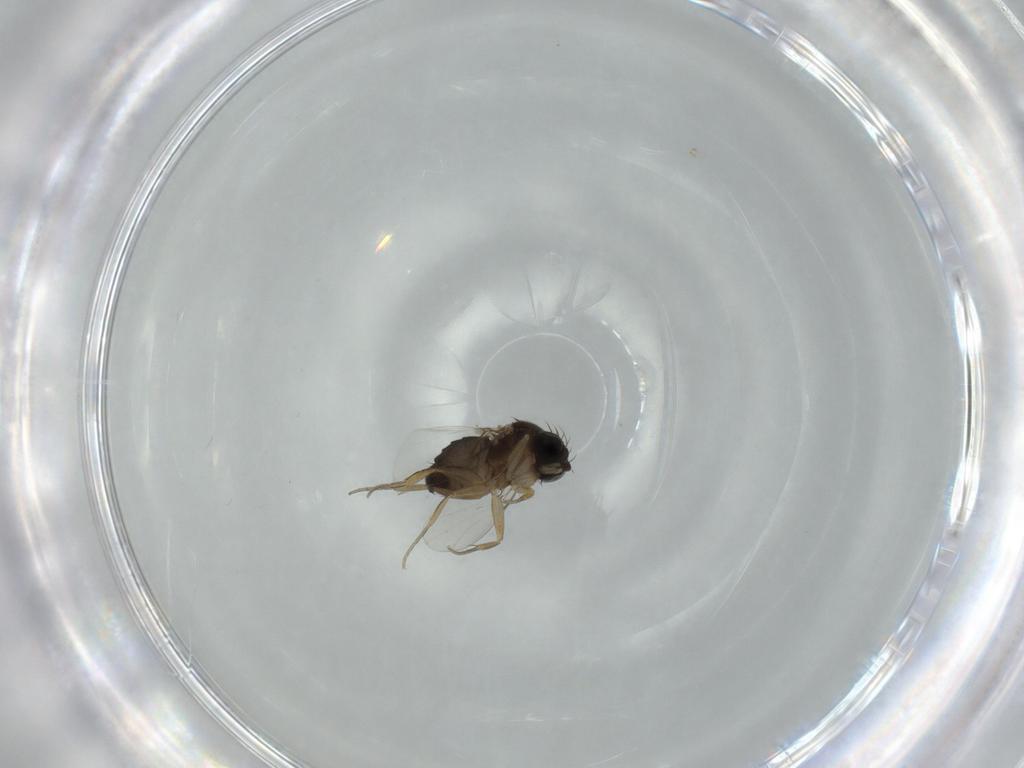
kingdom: Animalia
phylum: Arthropoda
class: Insecta
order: Diptera
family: Phoridae
